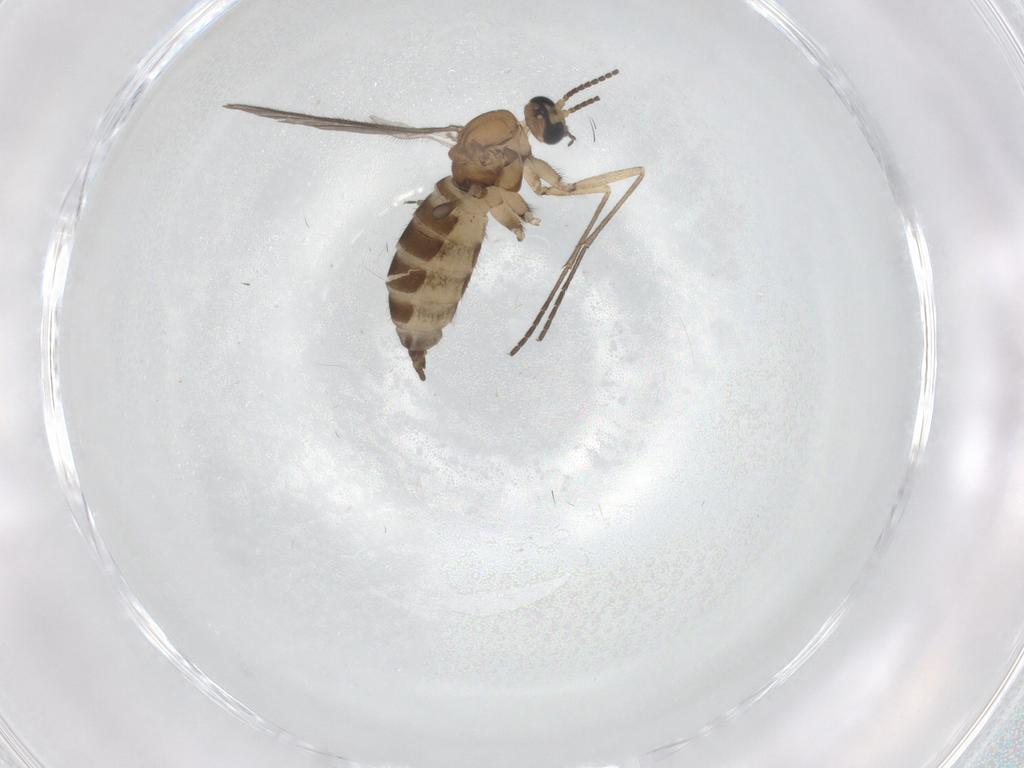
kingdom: Animalia
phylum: Arthropoda
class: Insecta
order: Diptera
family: Sciaridae
